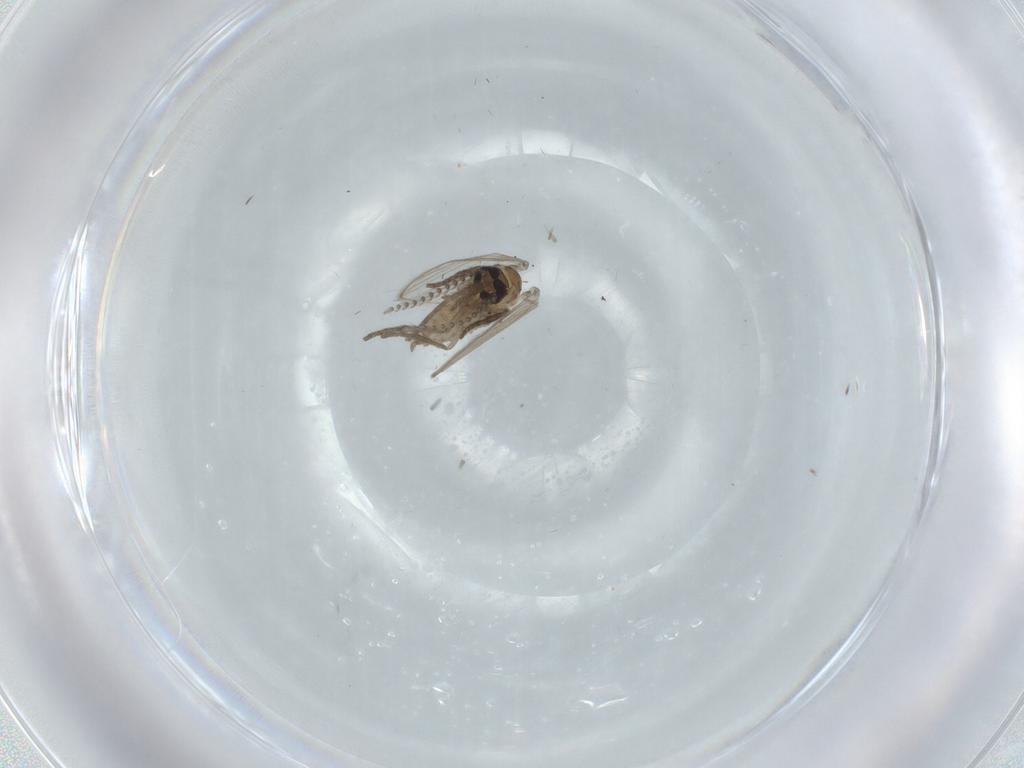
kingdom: Animalia
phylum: Arthropoda
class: Insecta
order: Diptera
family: Psychodidae
